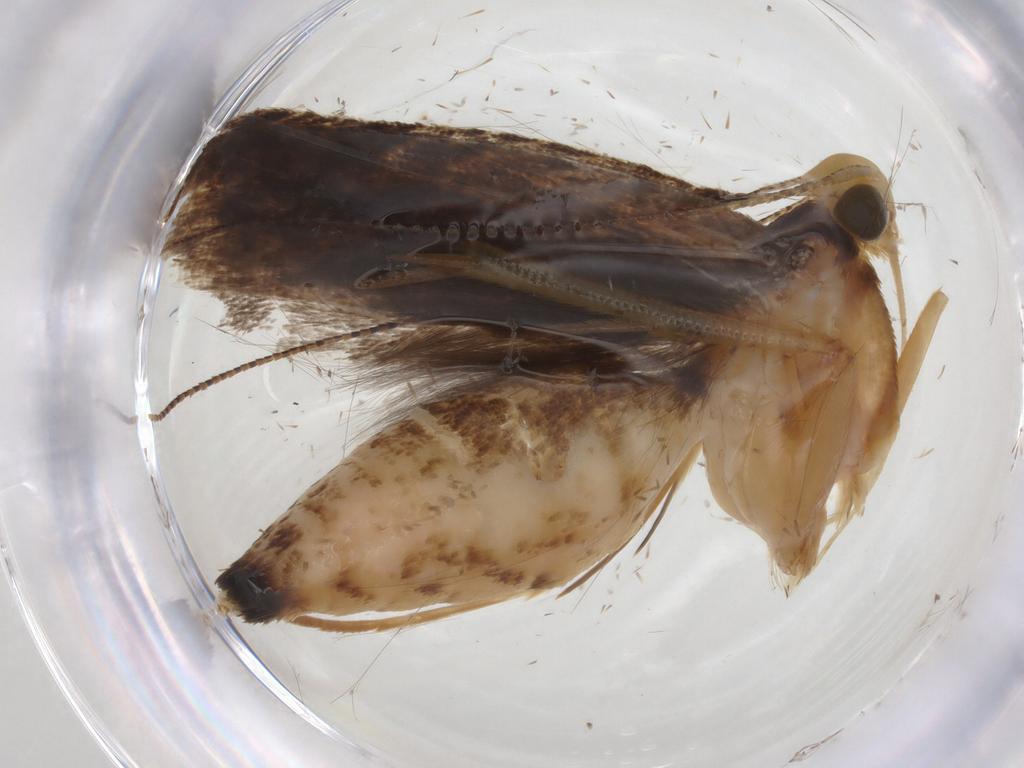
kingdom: Animalia
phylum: Arthropoda
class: Insecta
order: Lepidoptera
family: Gelechiidae
